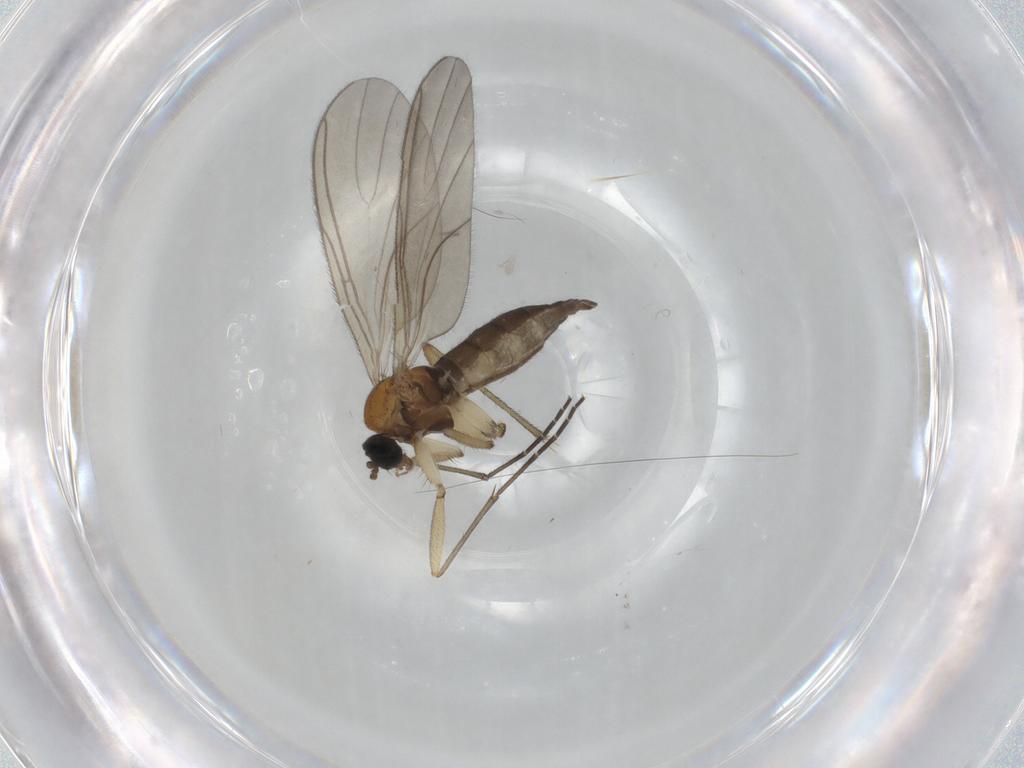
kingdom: Animalia
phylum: Arthropoda
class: Insecta
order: Diptera
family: Sciaridae
